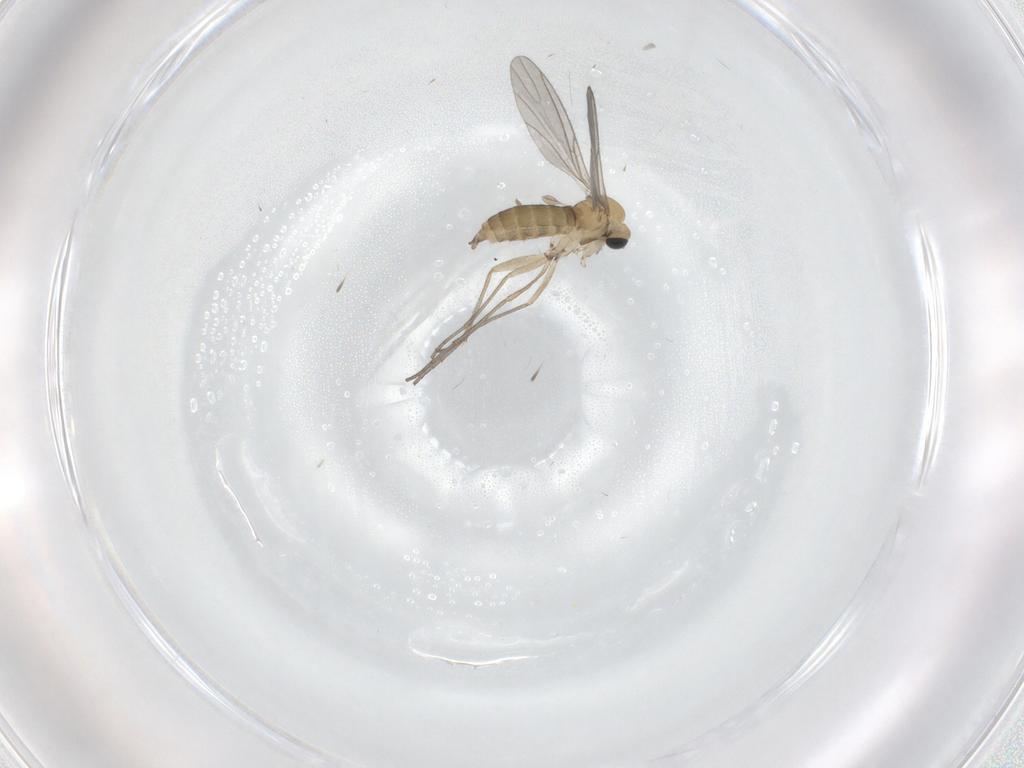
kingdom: Animalia
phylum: Arthropoda
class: Insecta
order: Diptera
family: Sciaridae
